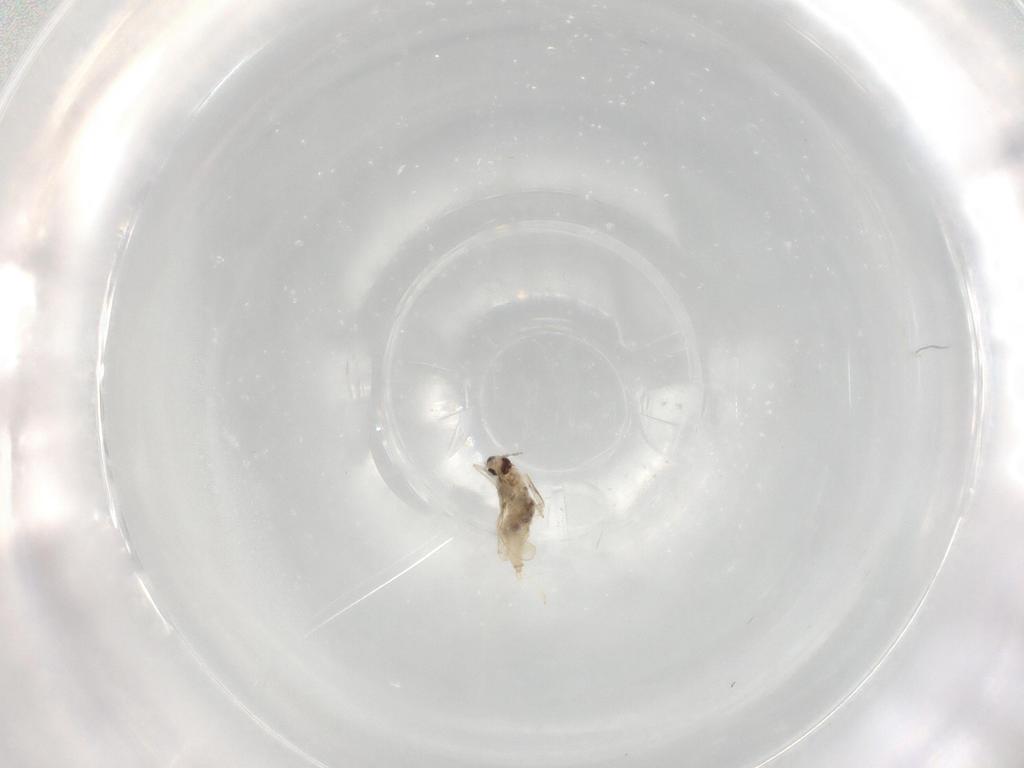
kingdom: Animalia
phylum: Arthropoda
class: Insecta
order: Diptera
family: Cecidomyiidae
